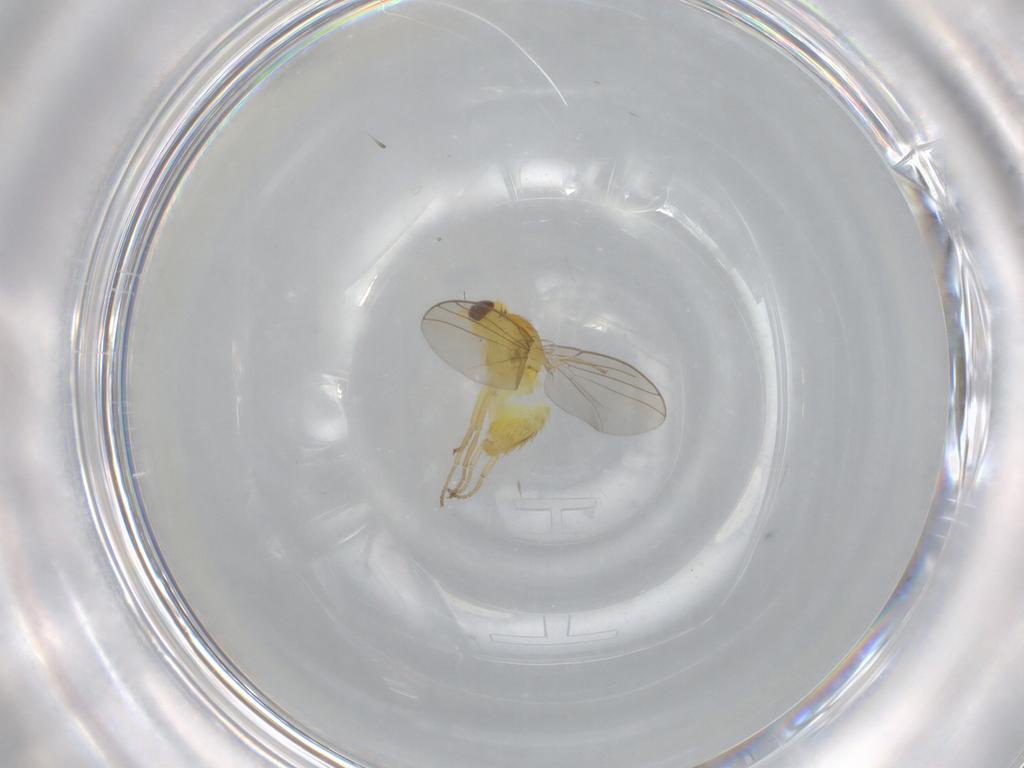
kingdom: Animalia
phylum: Arthropoda
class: Insecta
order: Diptera
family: Agromyzidae
